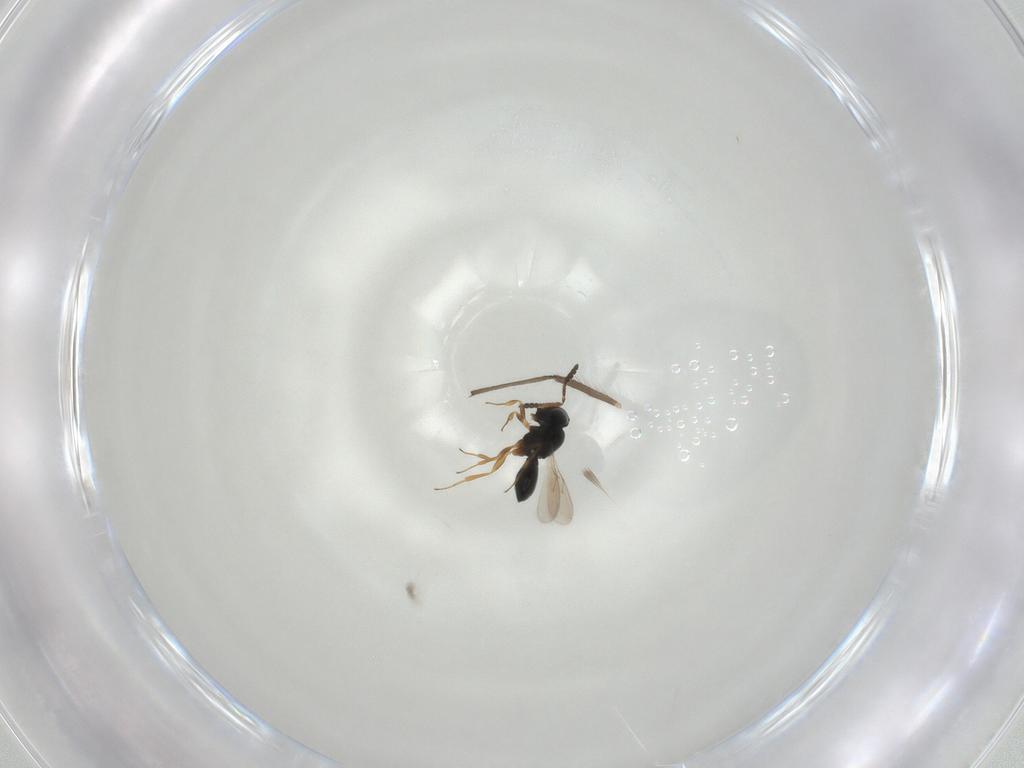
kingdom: Animalia
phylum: Arthropoda
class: Insecta
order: Hymenoptera
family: Scelionidae
